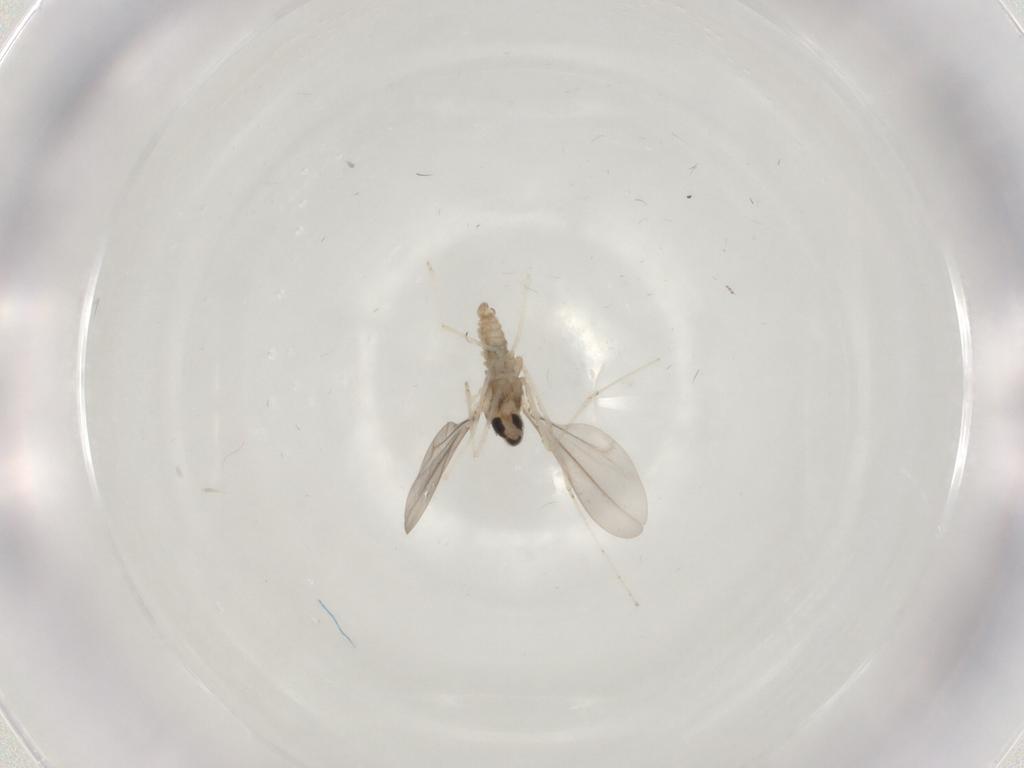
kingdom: Animalia
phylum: Arthropoda
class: Insecta
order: Diptera
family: Cecidomyiidae
